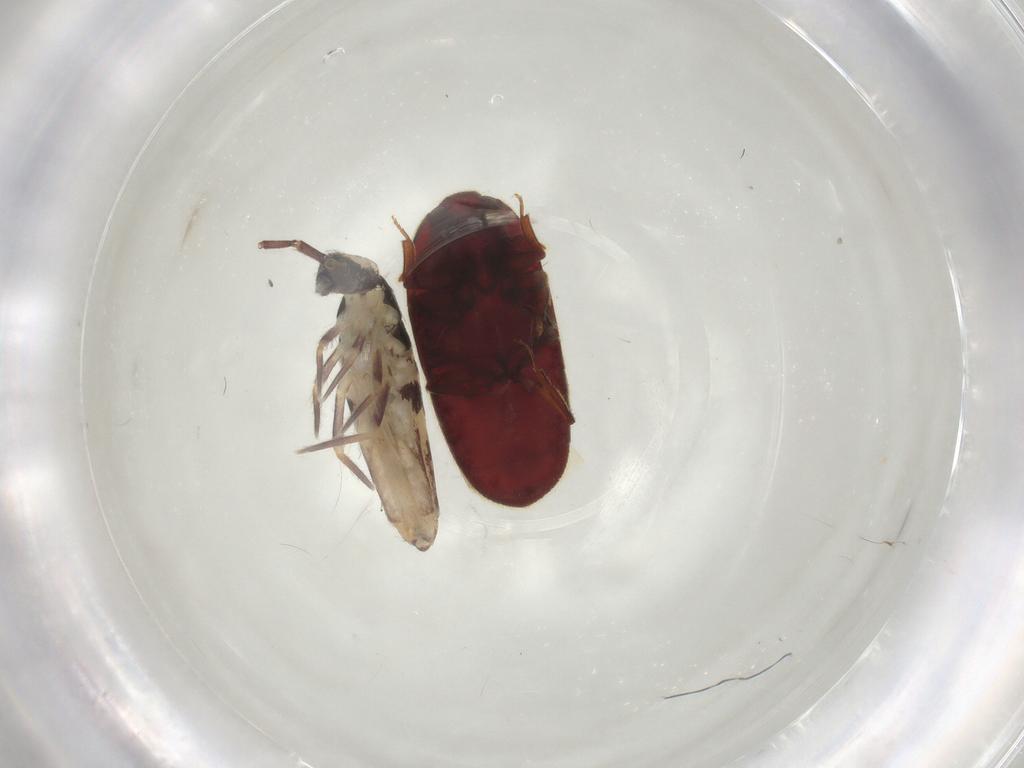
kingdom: Animalia
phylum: Arthropoda
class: Collembola
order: Entomobryomorpha
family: Entomobryidae
